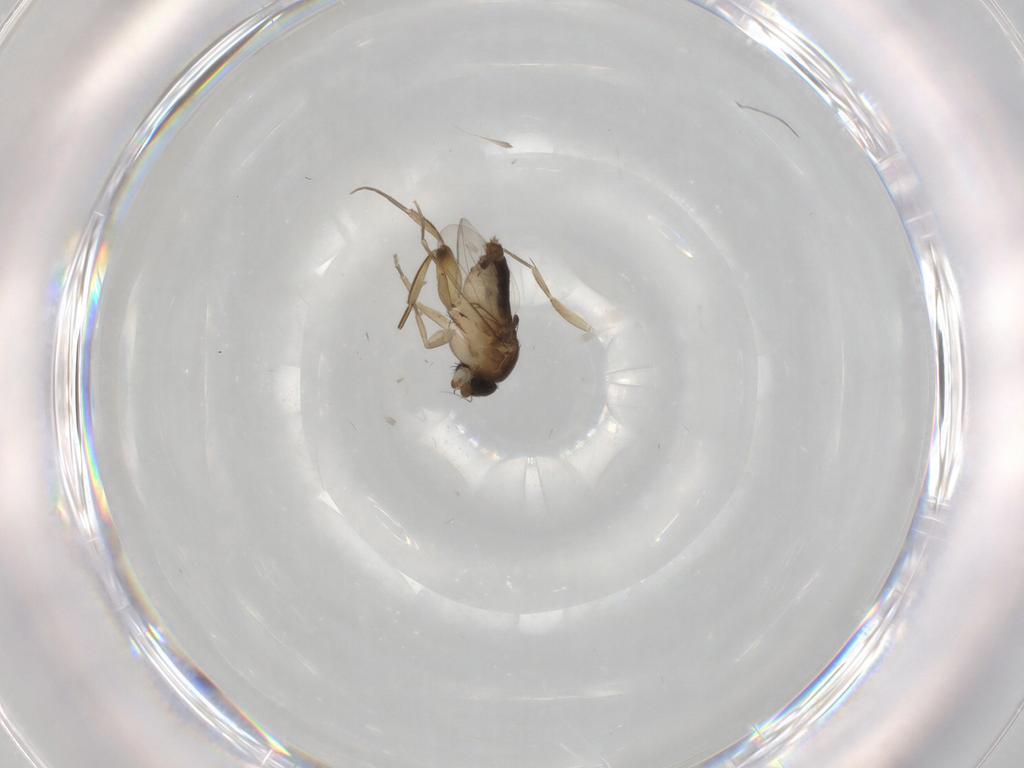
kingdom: Animalia
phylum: Arthropoda
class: Insecta
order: Diptera
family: Phoridae
